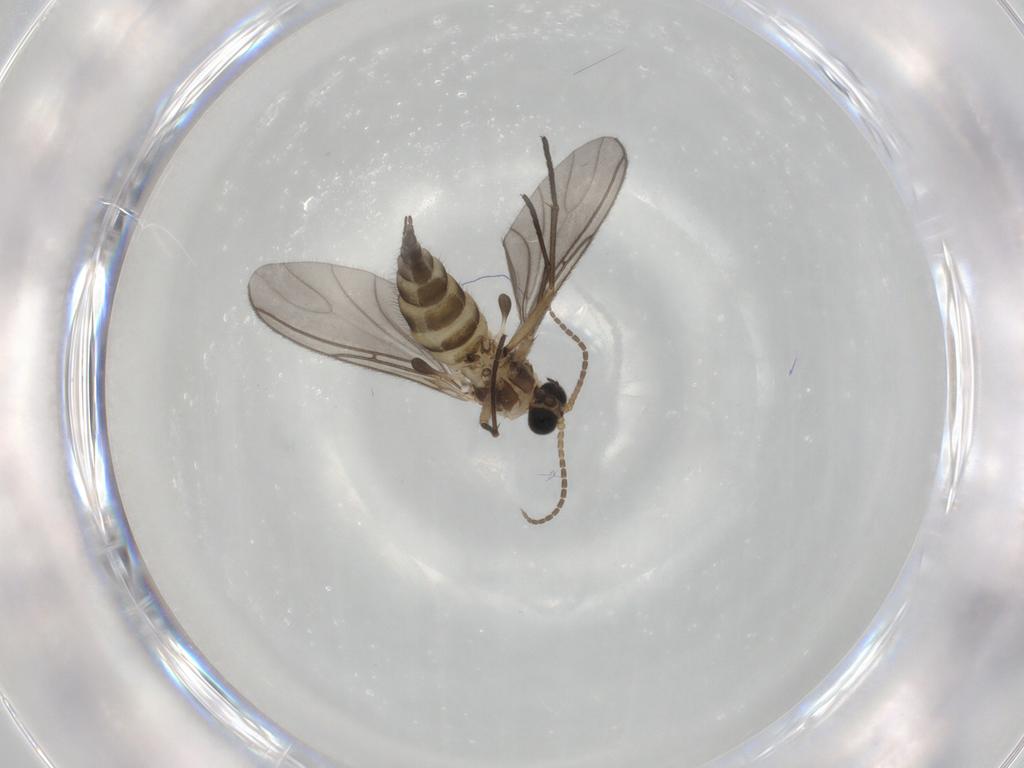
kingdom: Animalia
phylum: Arthropoda
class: Insecta
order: Diptera
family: Sciaridae
